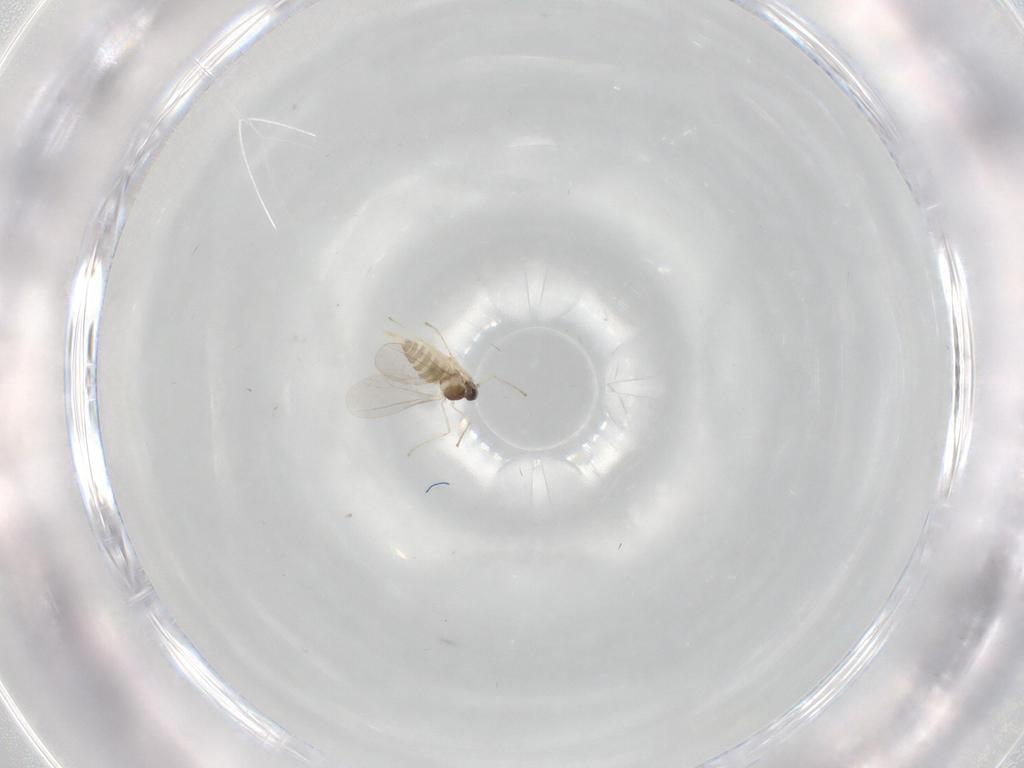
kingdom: Animalia
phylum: Arthropoda
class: Insecta
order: Diptera
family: Cecidomyiidae
